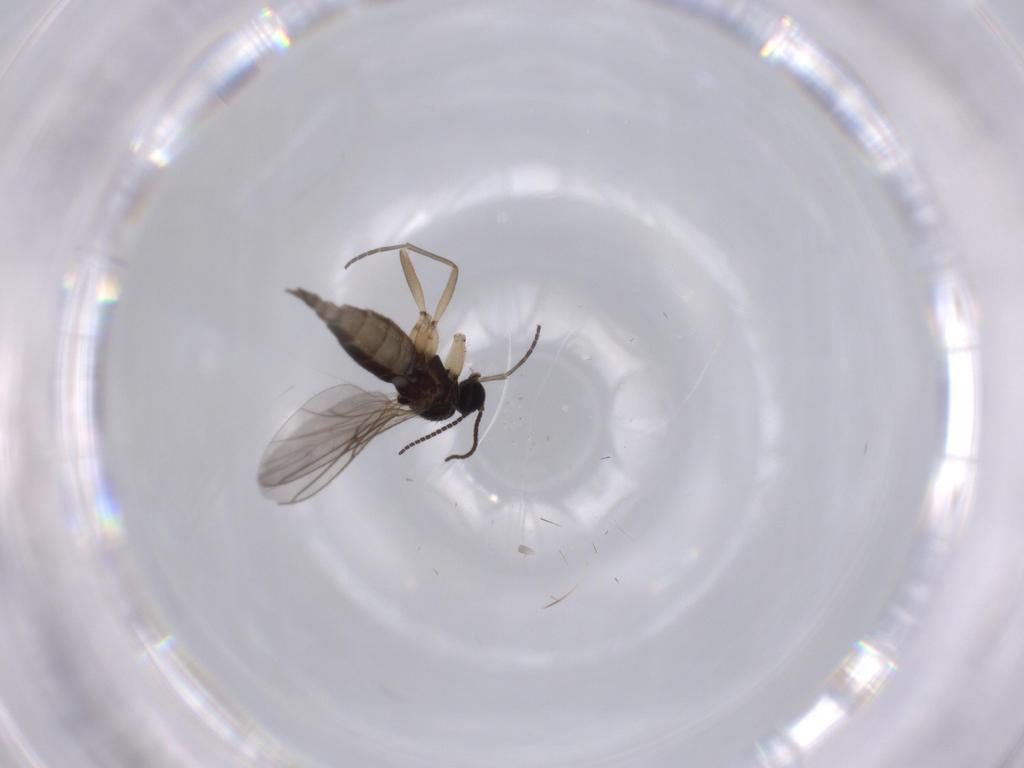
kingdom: Animalia
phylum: Arthropoda
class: Insecta
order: Diptera
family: Sciaridae
